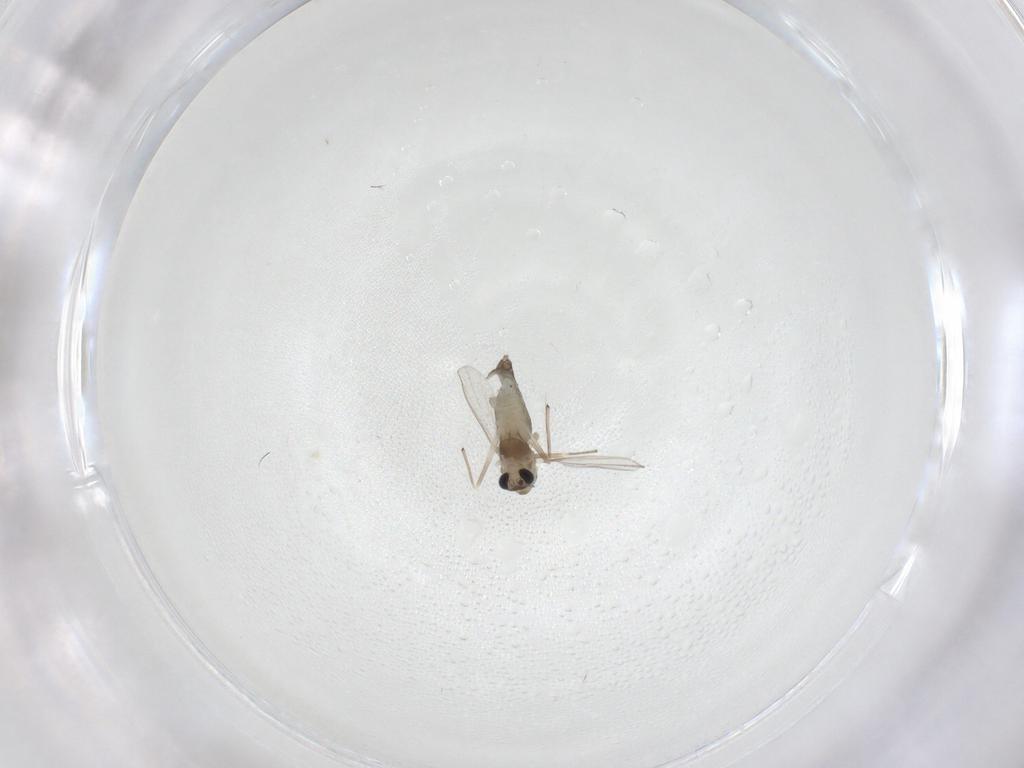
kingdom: Animalia
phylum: Arthropoda
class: Insecta
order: Diptera
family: Chironomidae
